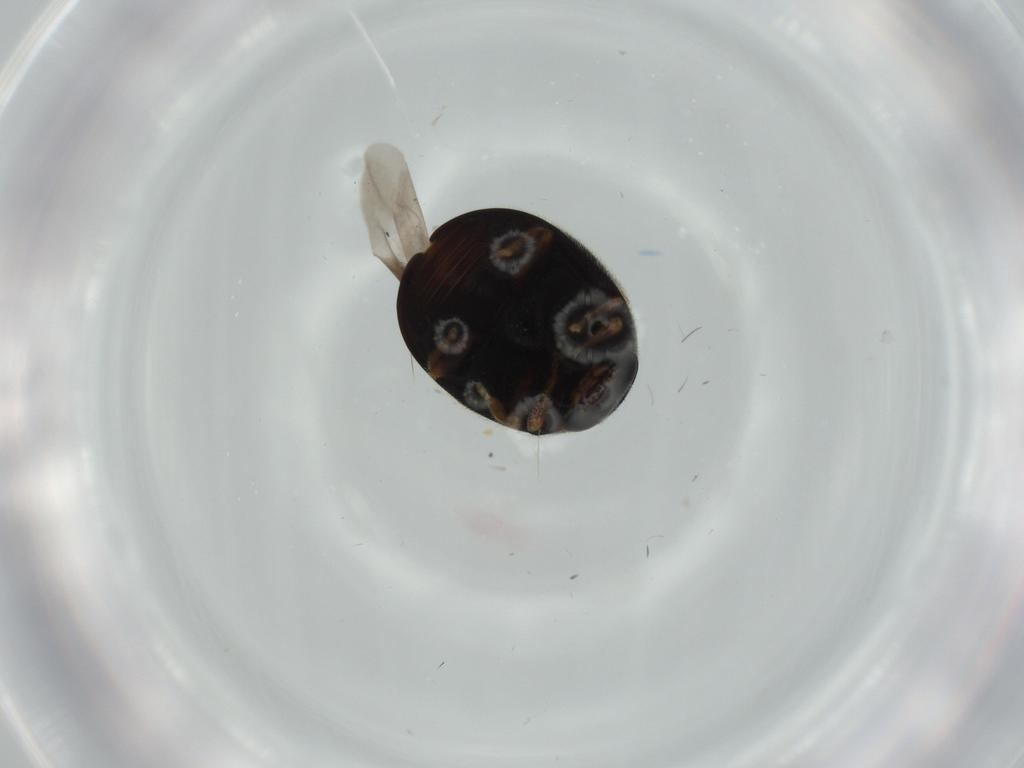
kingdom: Animalia
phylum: Arthropoda
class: Insecta
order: Coleoptera
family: Coccinellidae
